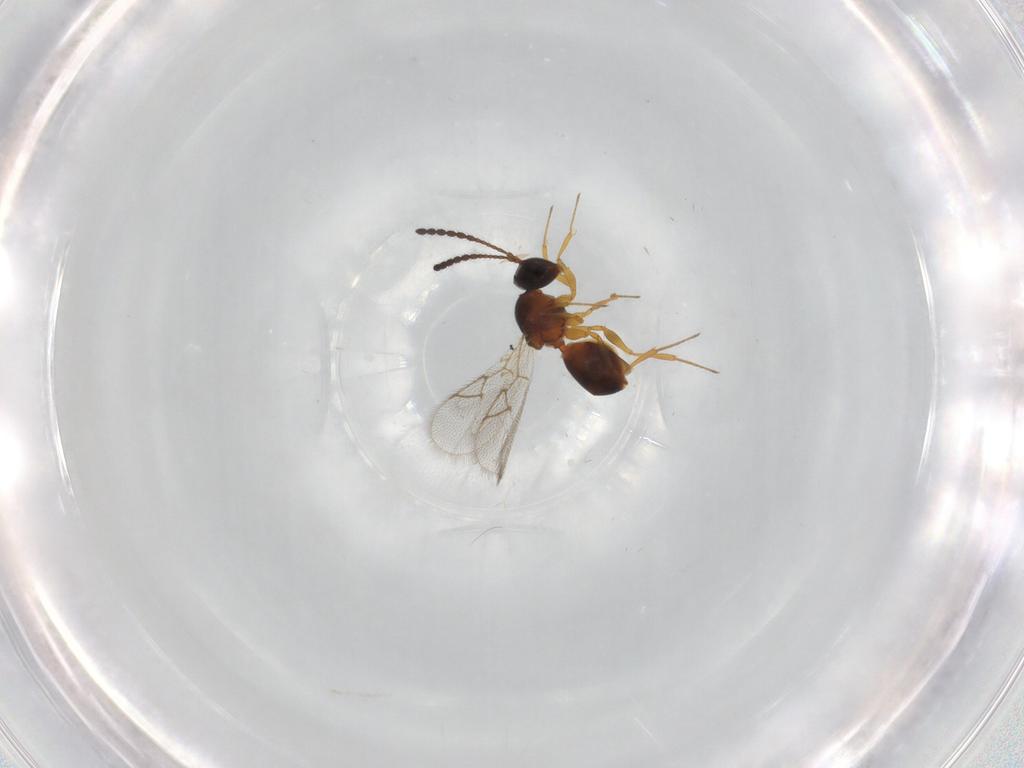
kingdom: Animalia
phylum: Arthropoda
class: Insecta
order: Hymenoptera
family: Figitidae
